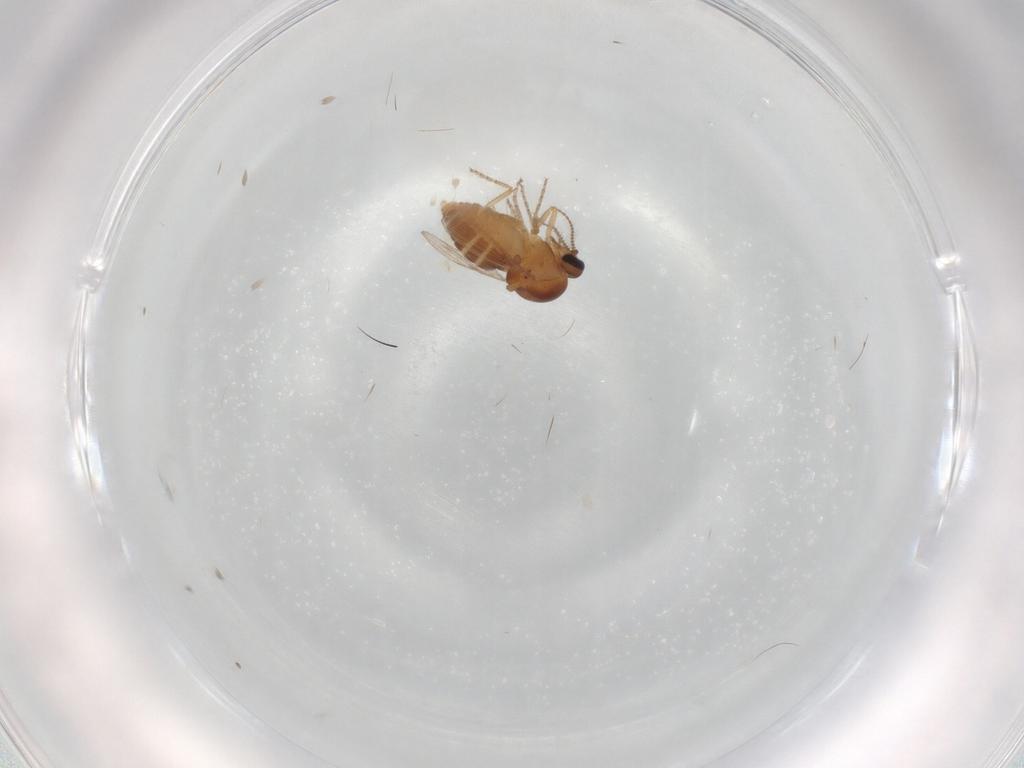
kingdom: Animalia
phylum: Arthropoda
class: Insecta
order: Diptera
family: Ceratopogonidae
